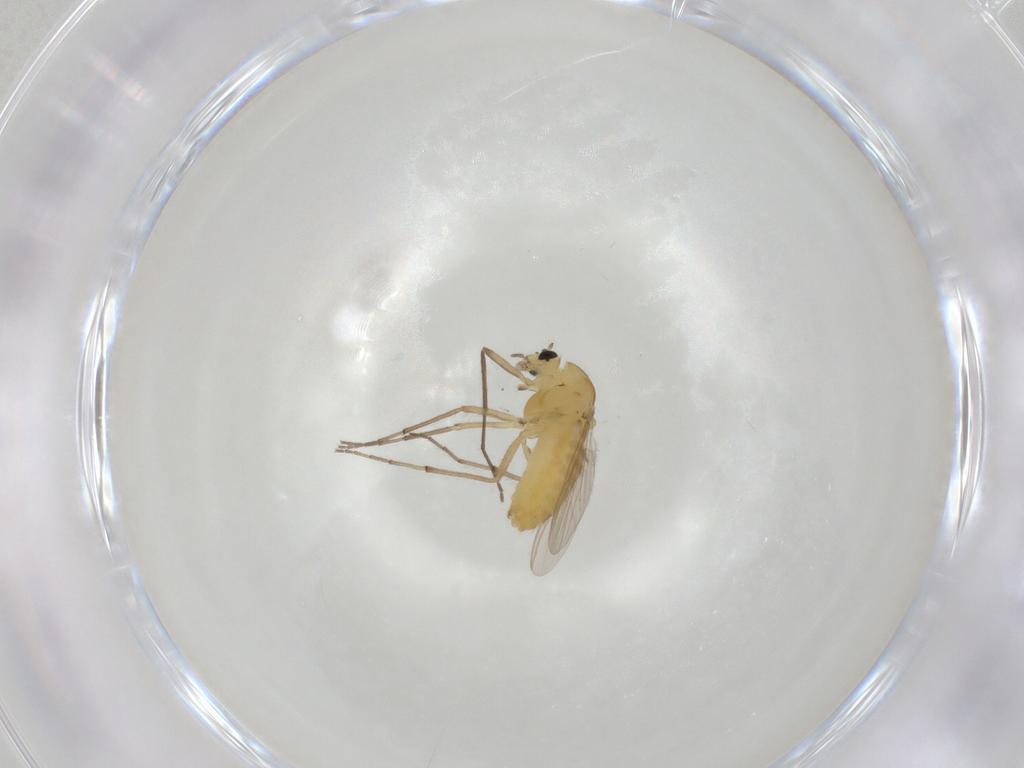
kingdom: Animalia
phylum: Arthropoda
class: Insecta
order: Diptera
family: Chironomidae
